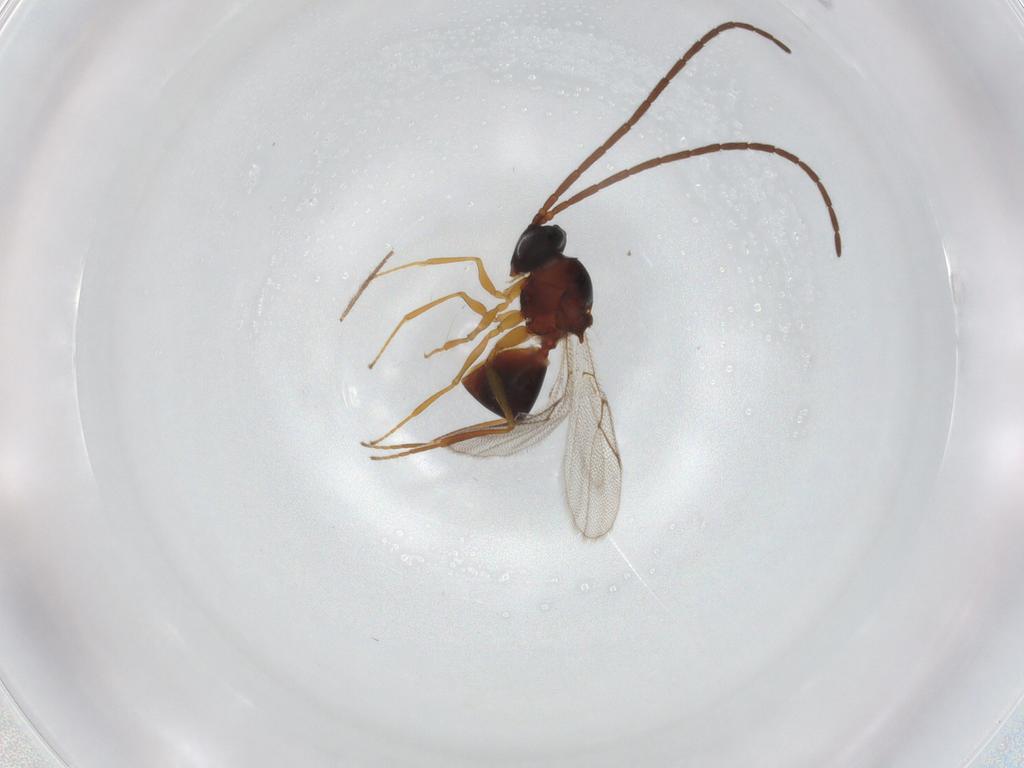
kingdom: Animalia
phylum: Arthropoda
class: Insecta
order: Hymenoptera
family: Figitidae
